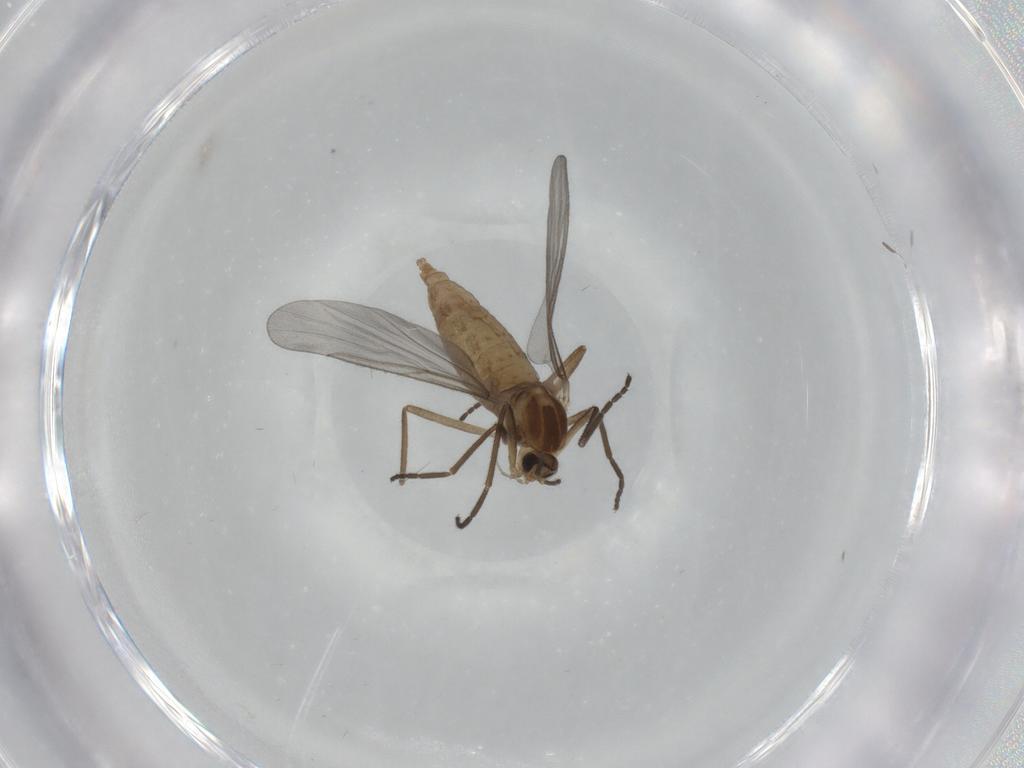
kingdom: Animalia
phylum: Arthropoda
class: Insecta
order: Diptera
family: Cecidomyiidae
